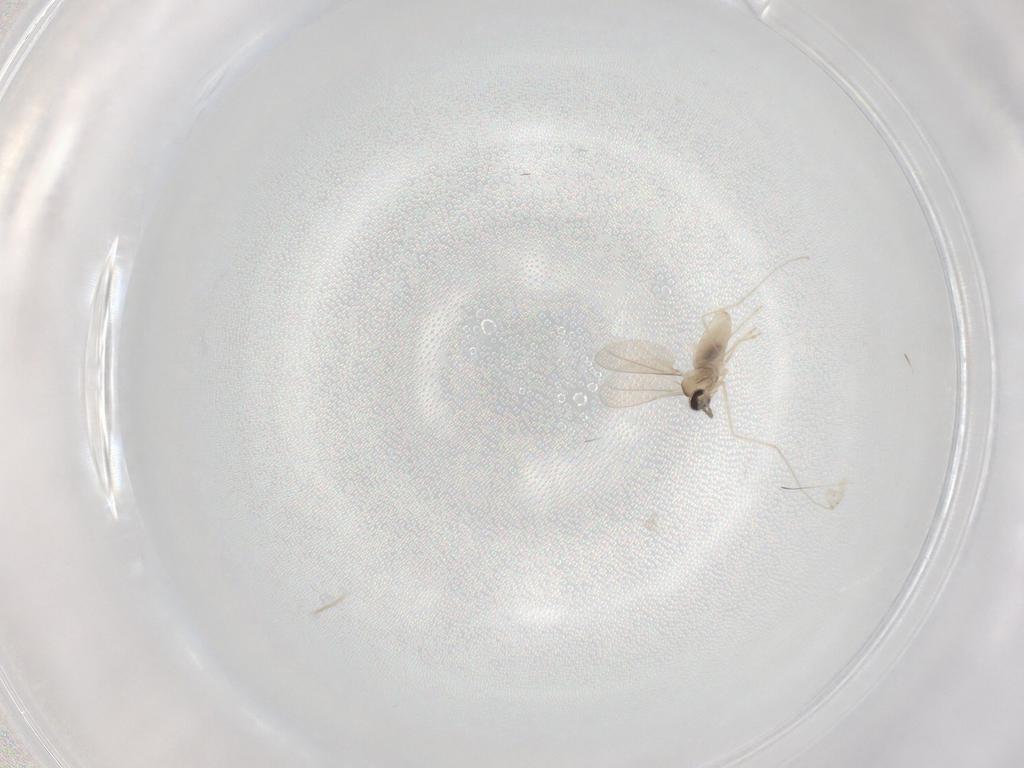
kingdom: Animalia
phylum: Arthropoda
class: Insecta
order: Diptera
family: Cecidomyiidae
